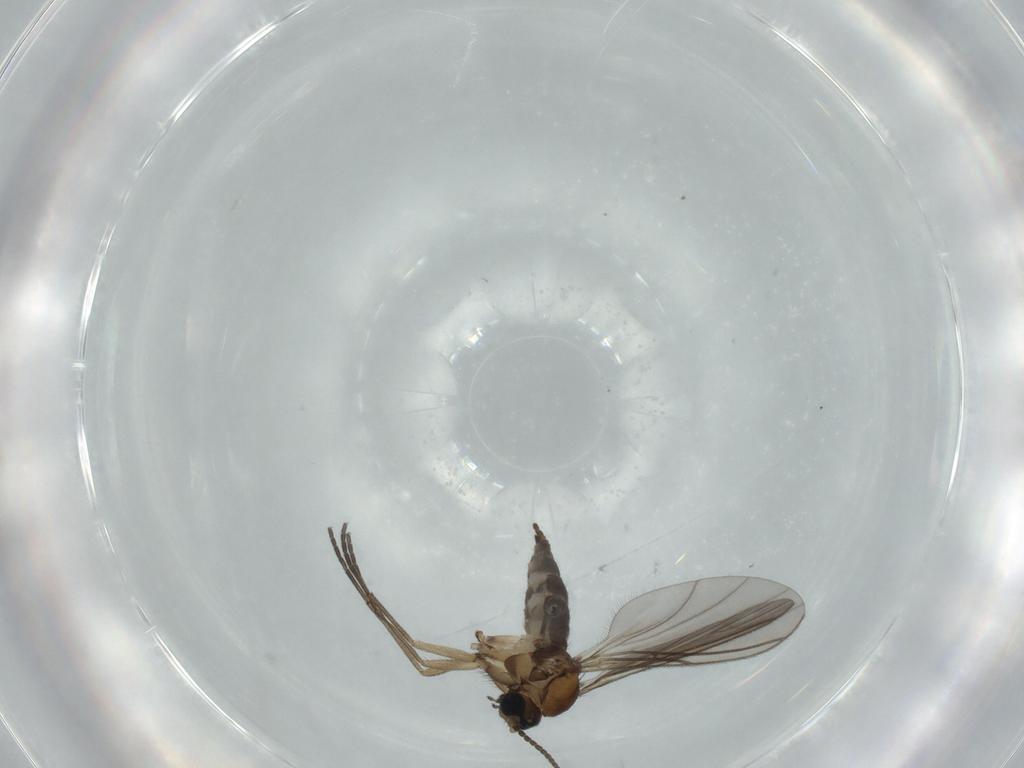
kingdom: Animalia
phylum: Arthropoda
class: Insecta
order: Diptera
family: Sciaridae
